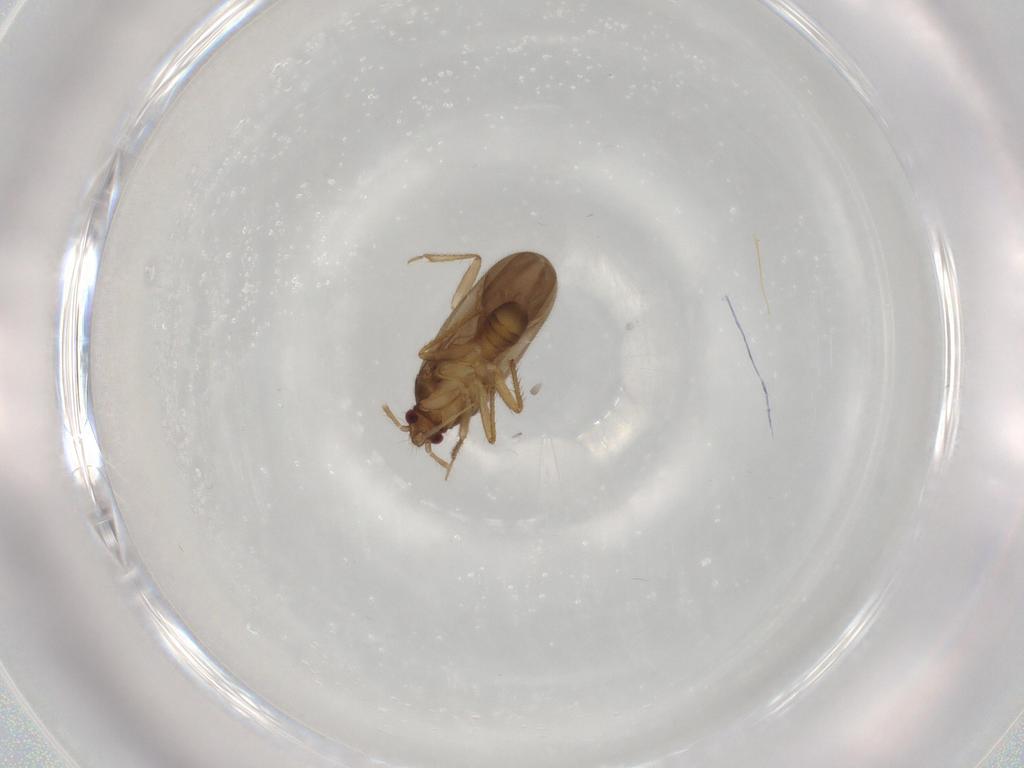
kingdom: Animalia
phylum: Arthropoda
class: Insecta
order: Hemiptera
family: Ceratocombidae
